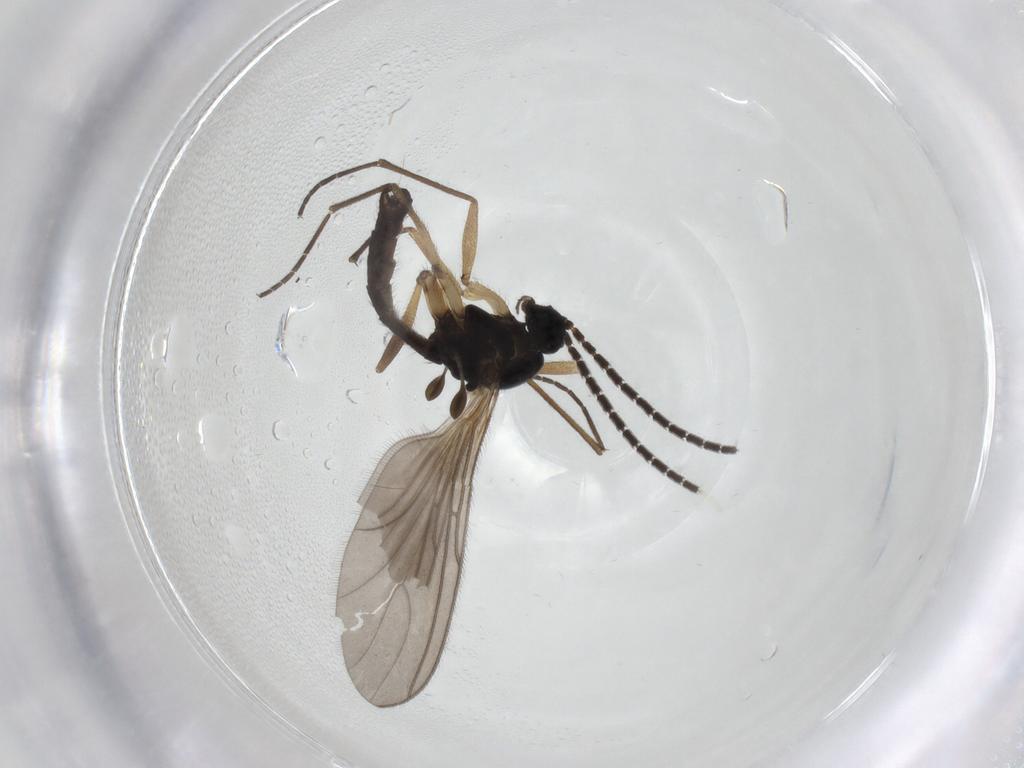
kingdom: Animalia
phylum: Arthropoda
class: Insecta
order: Diptera
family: Sciaridae
